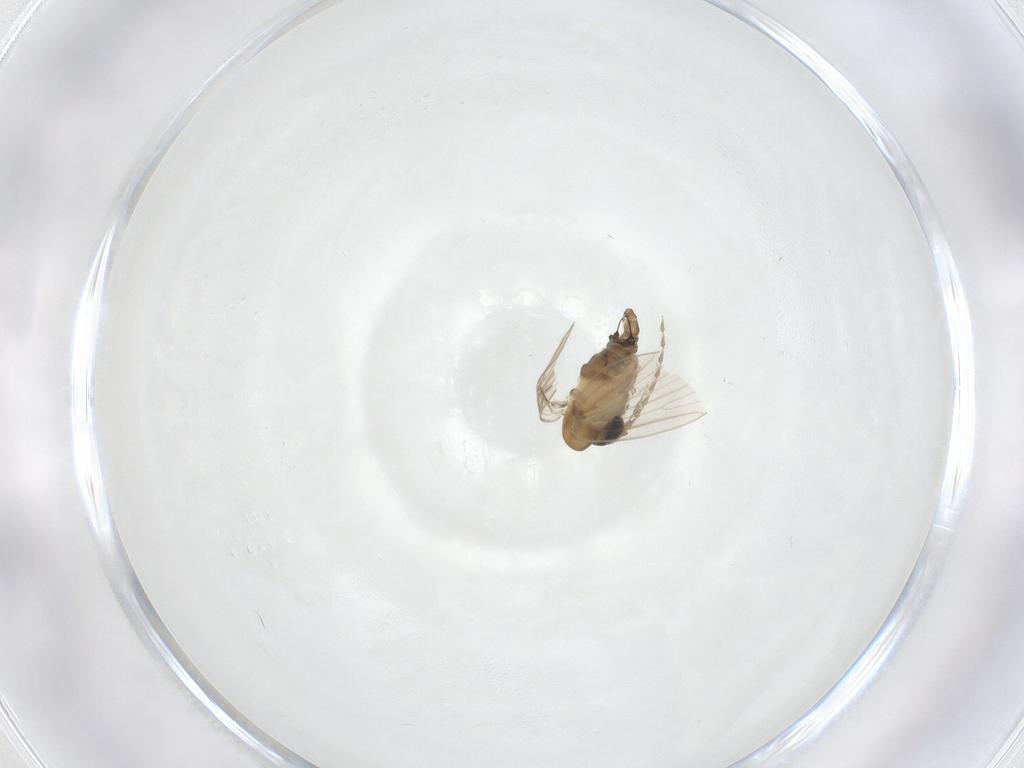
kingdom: Animalia
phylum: Arthropoda
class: Insecta
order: Diptera
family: Psychodidae
